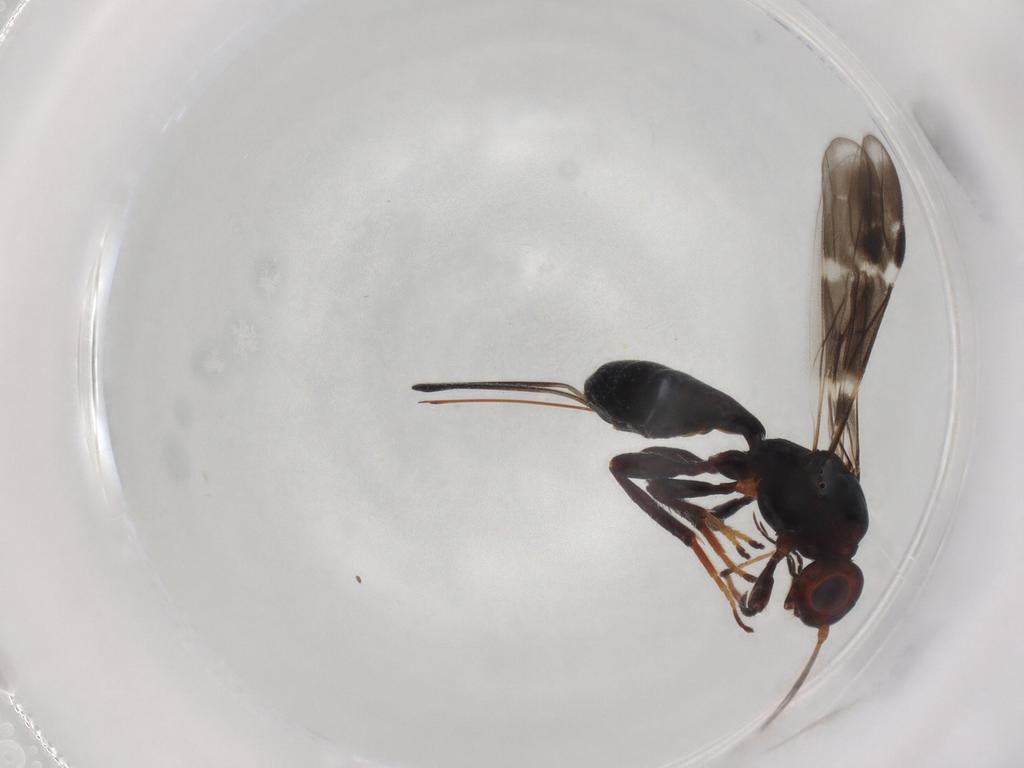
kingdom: Animalia
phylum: Arthropoda
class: Insecta
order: Hymenoptera
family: Braconidae
